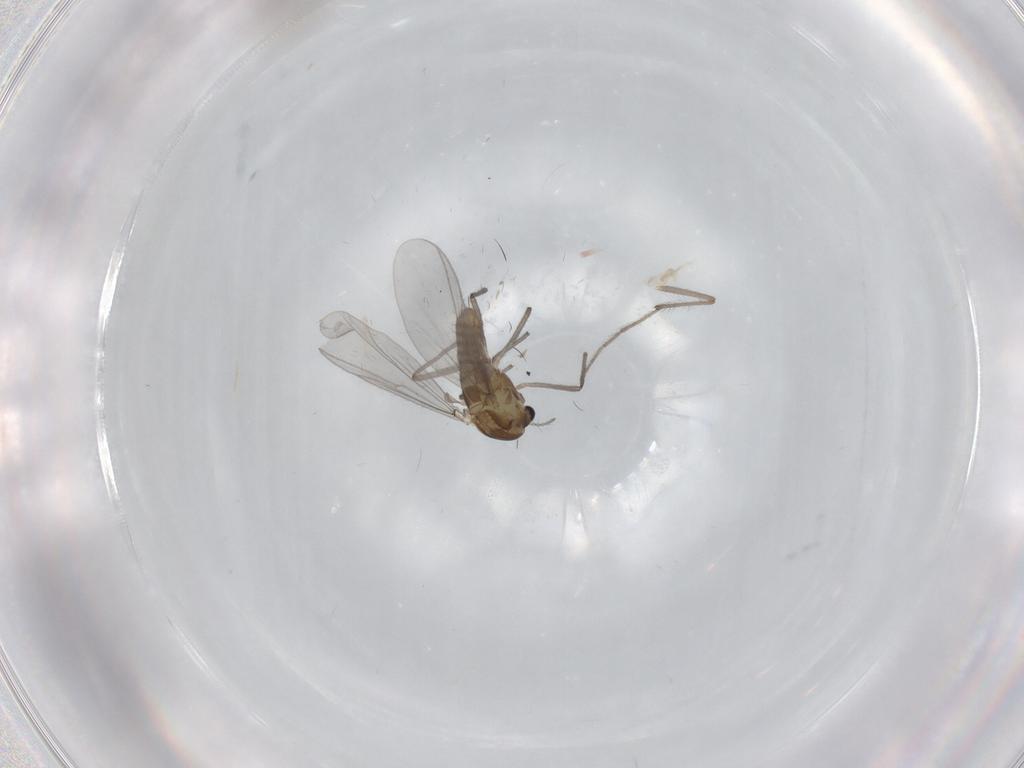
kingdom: Animalia
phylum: Arthropoda
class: Insecta
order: Diptera
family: Chironomidae
